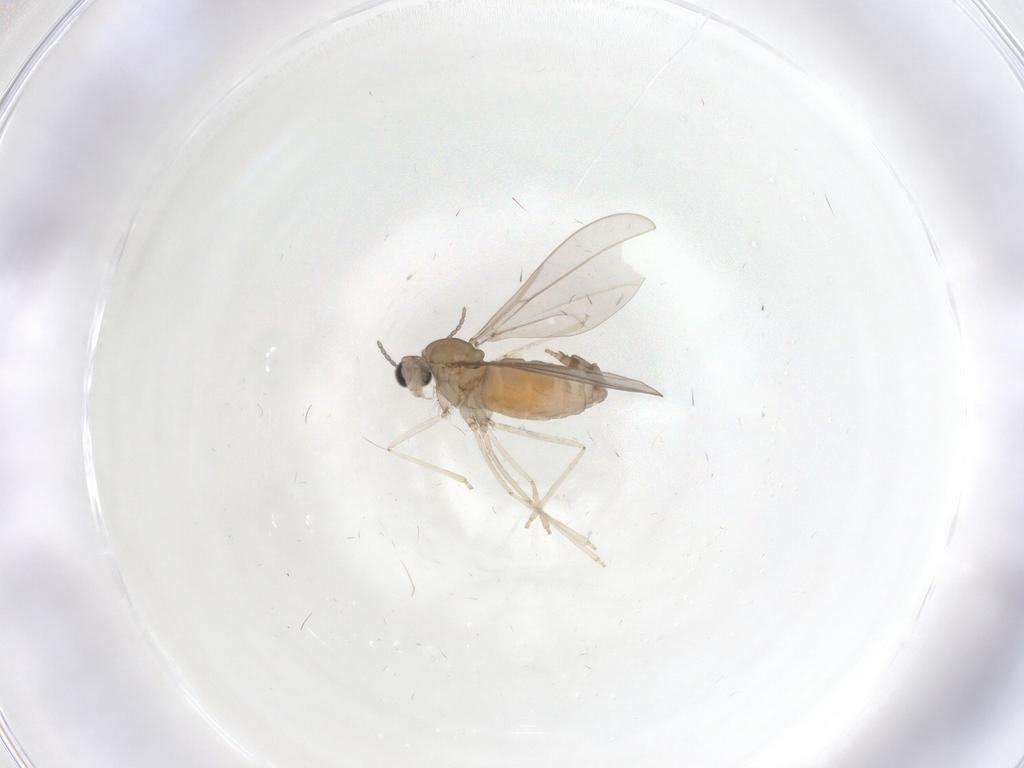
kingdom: Animalia
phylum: Arthropoda
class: Insecta
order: Diptera
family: Cecidomyiidae
